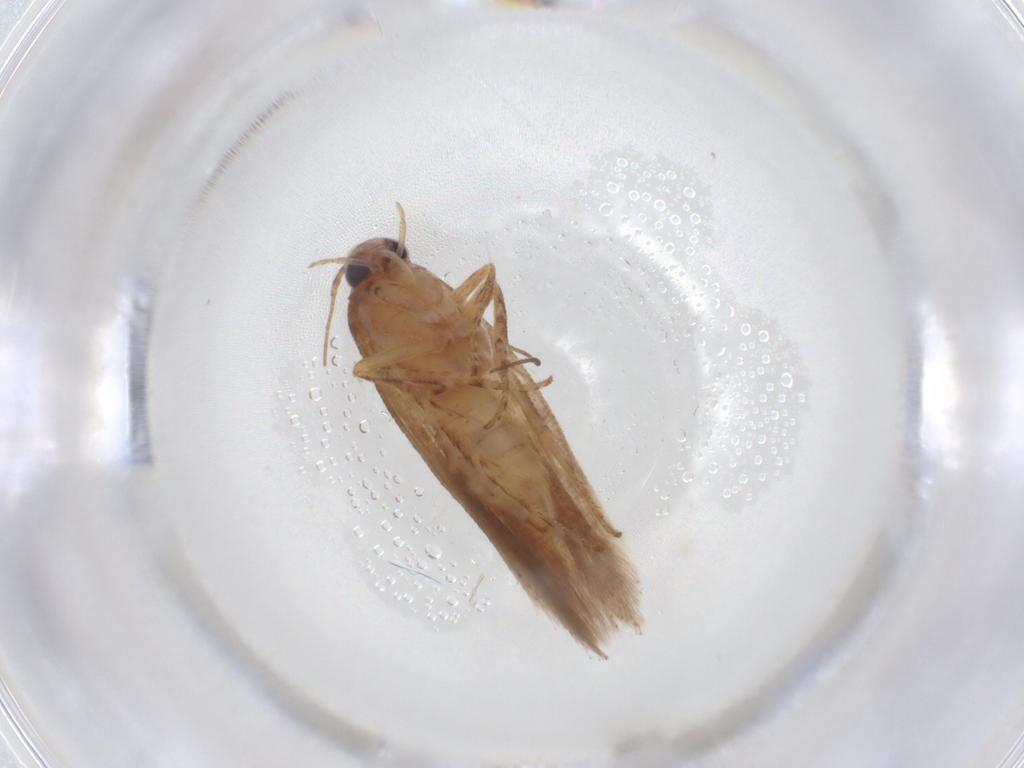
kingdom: Animalia
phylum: Arthropoda
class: Insecta
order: Lepidoptera
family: Gelechiidae
